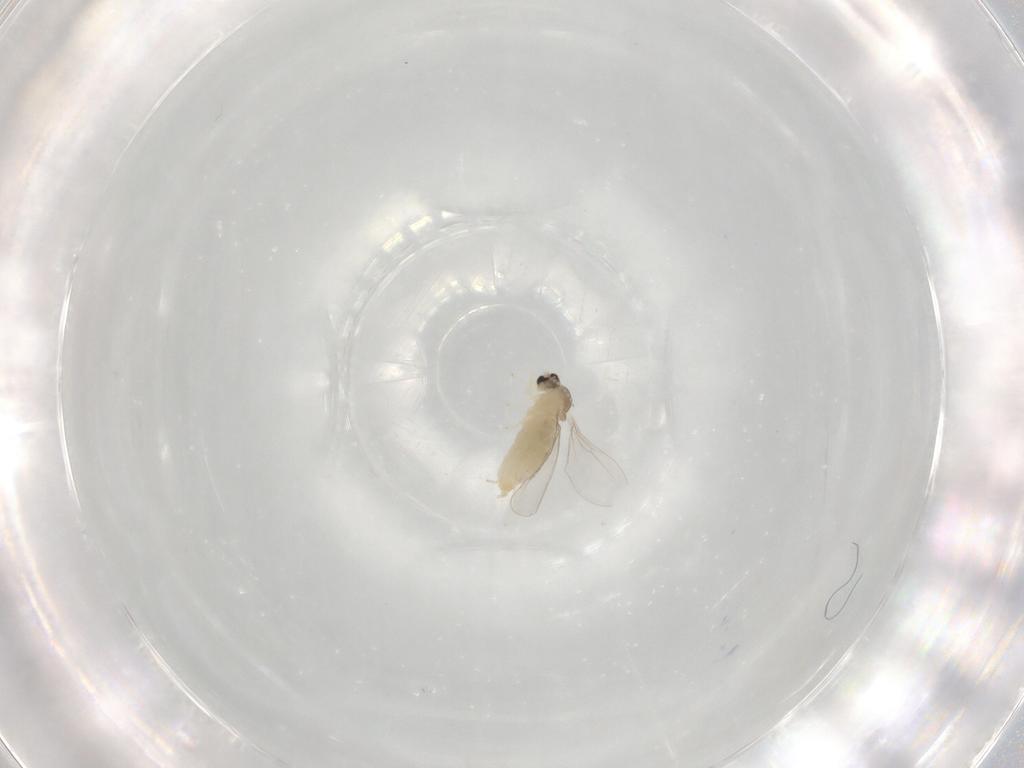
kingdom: Animalia
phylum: Arthropoda
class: Insecta
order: Diptera
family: Cecidomyiidae
